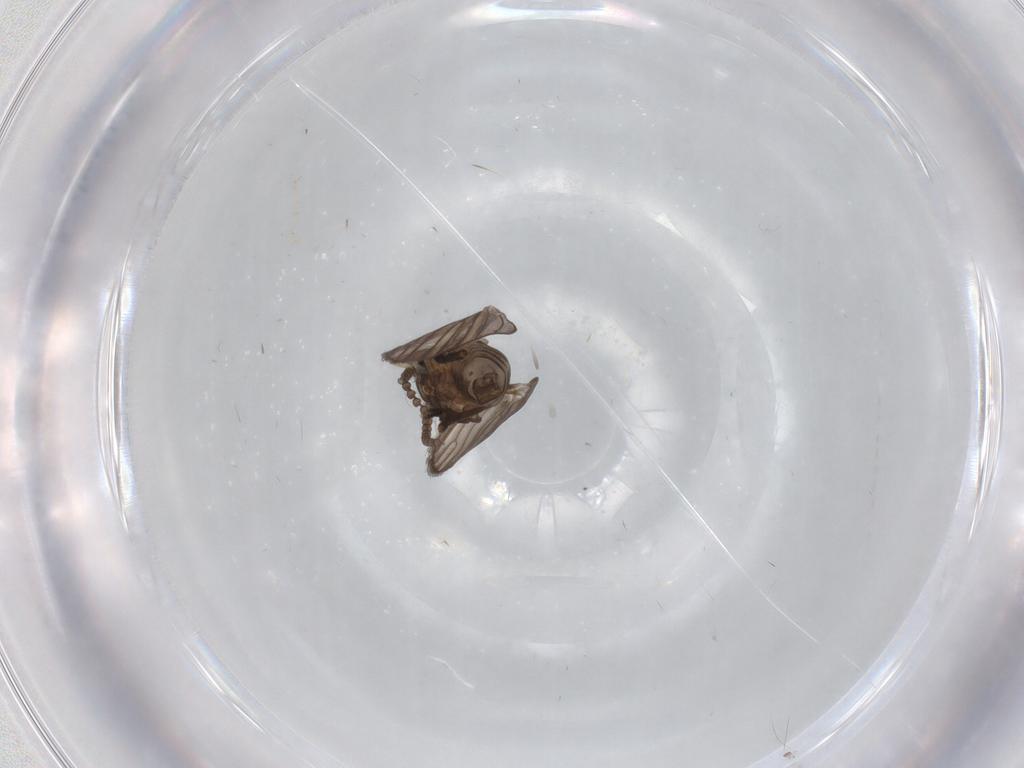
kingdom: Animalia
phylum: Arthropoda
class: Insecta
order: Diptera
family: Psychodidae
